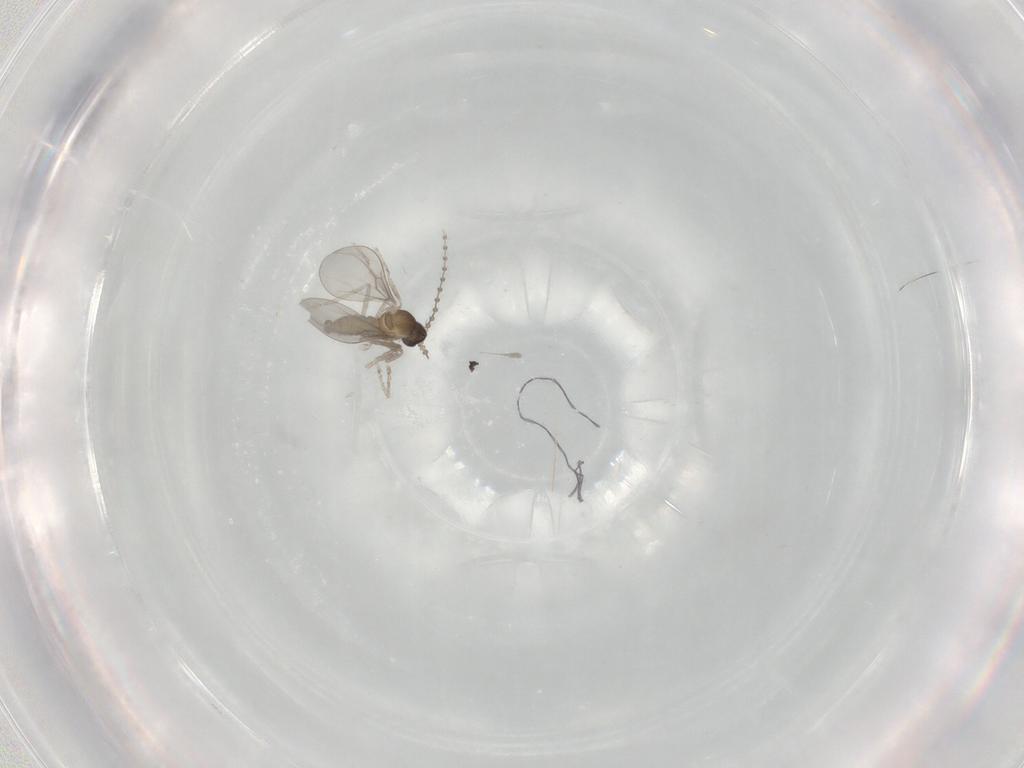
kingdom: Animalia
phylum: Arthropoda
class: Insecta
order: Diptera
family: Cecidomyiidae
